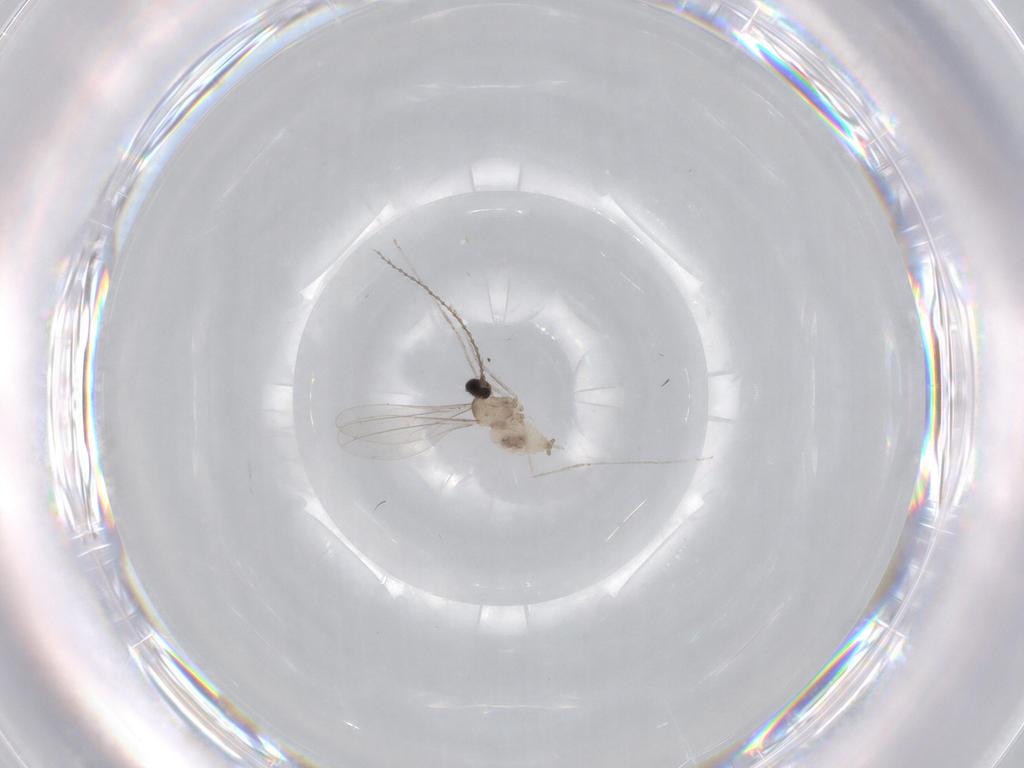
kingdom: Animalia
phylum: Arthropoda
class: Insecta
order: Diptera
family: Cecidomyiidae
